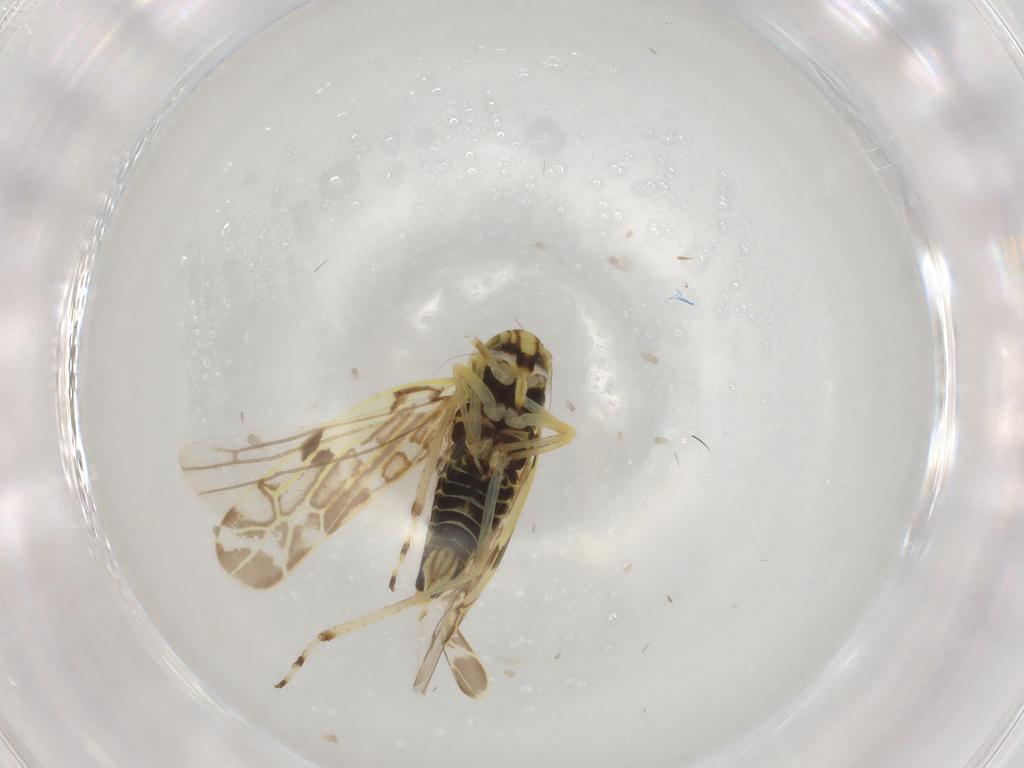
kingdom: Animalia
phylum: Arthropoda
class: Insecta
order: Hemiptera
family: Cicadellidae
